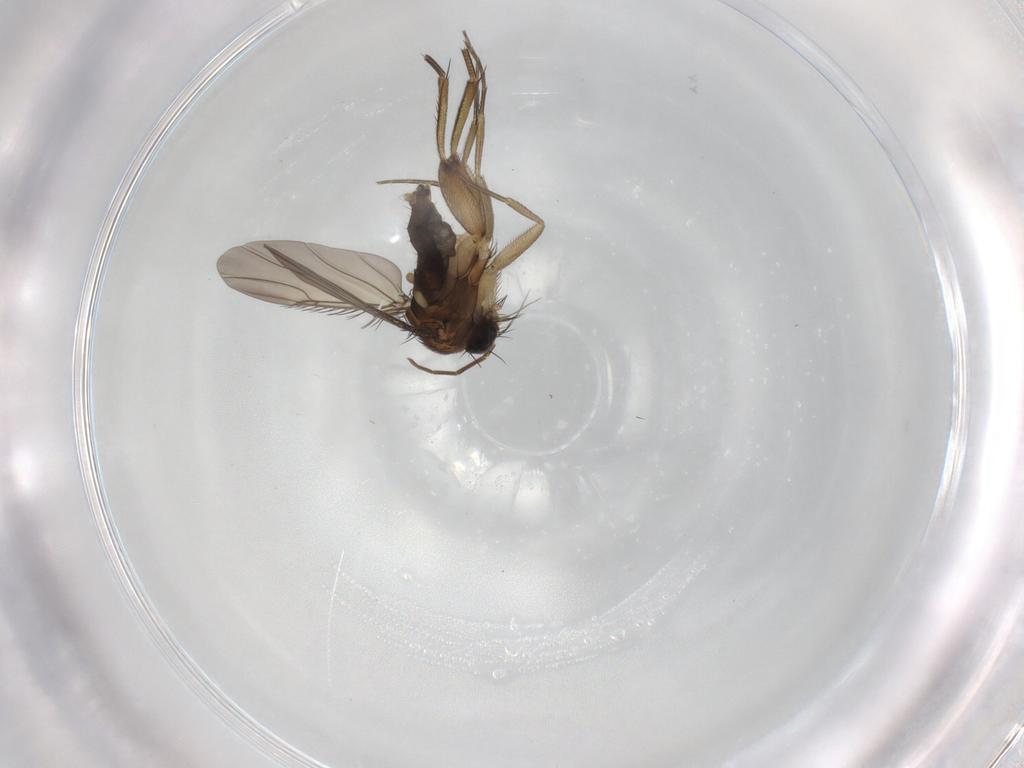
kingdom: Animalia
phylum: Arthropoda
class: Insecta
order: Diptera
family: Phoridae
